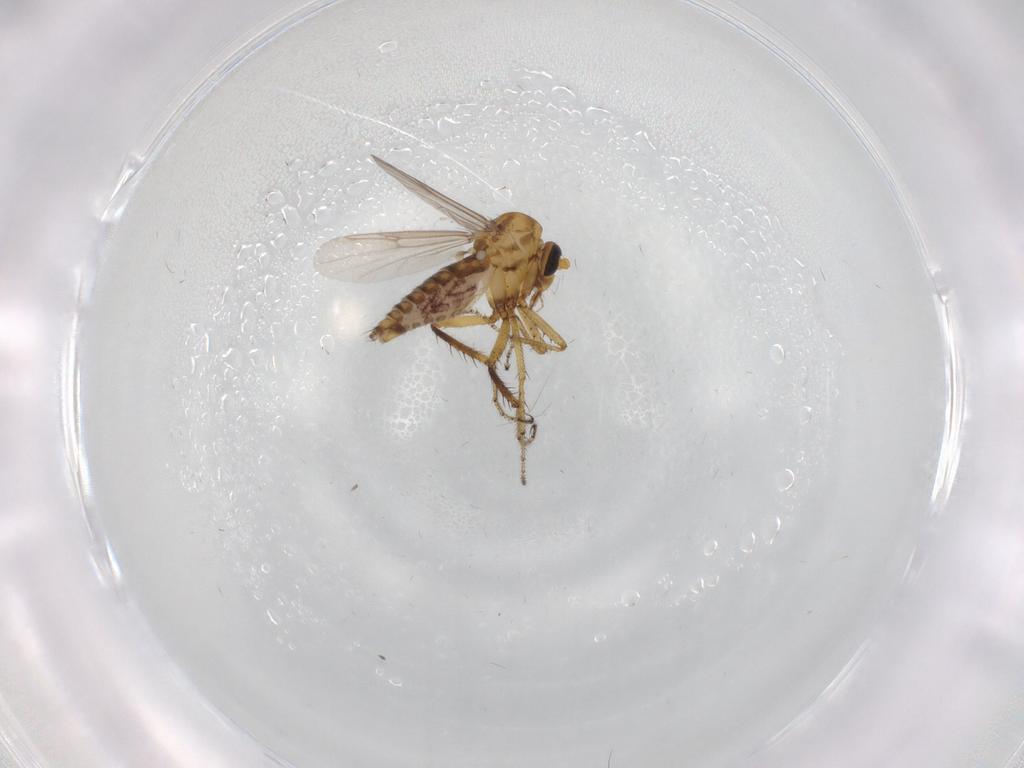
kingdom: Animalia
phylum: Arthropoda
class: Insecta
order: Diptera
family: Ceratopogonidae
